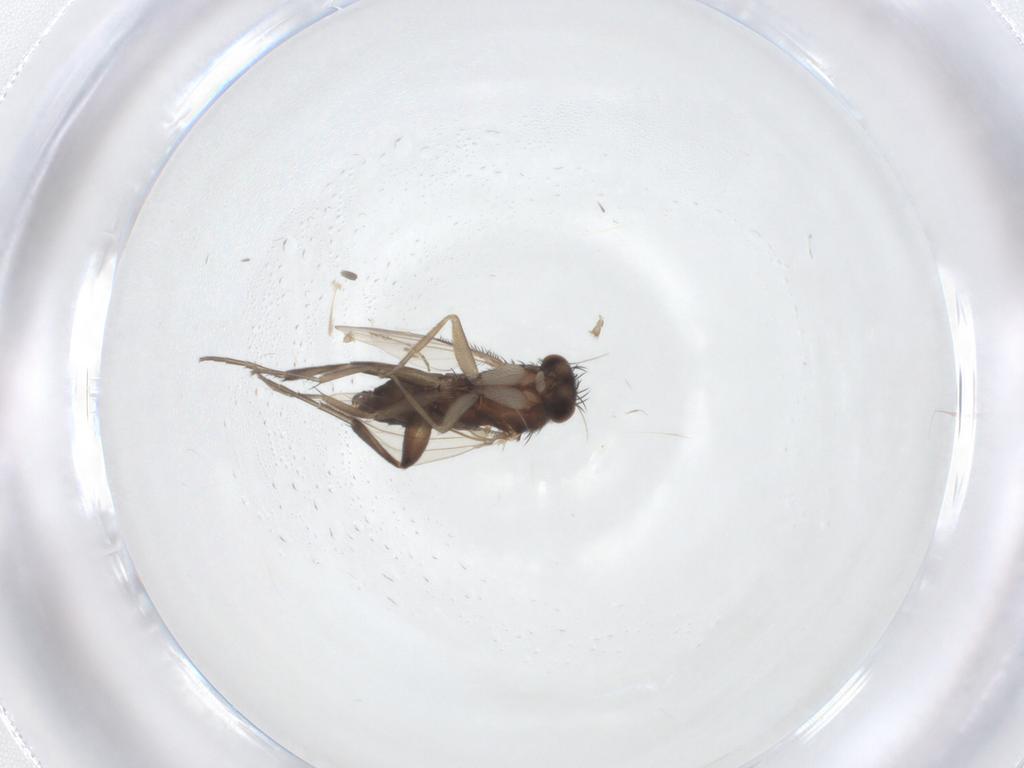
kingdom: Animalia
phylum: Arthropoda
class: Insecta
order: Diptera
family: Cecidomyiidae
